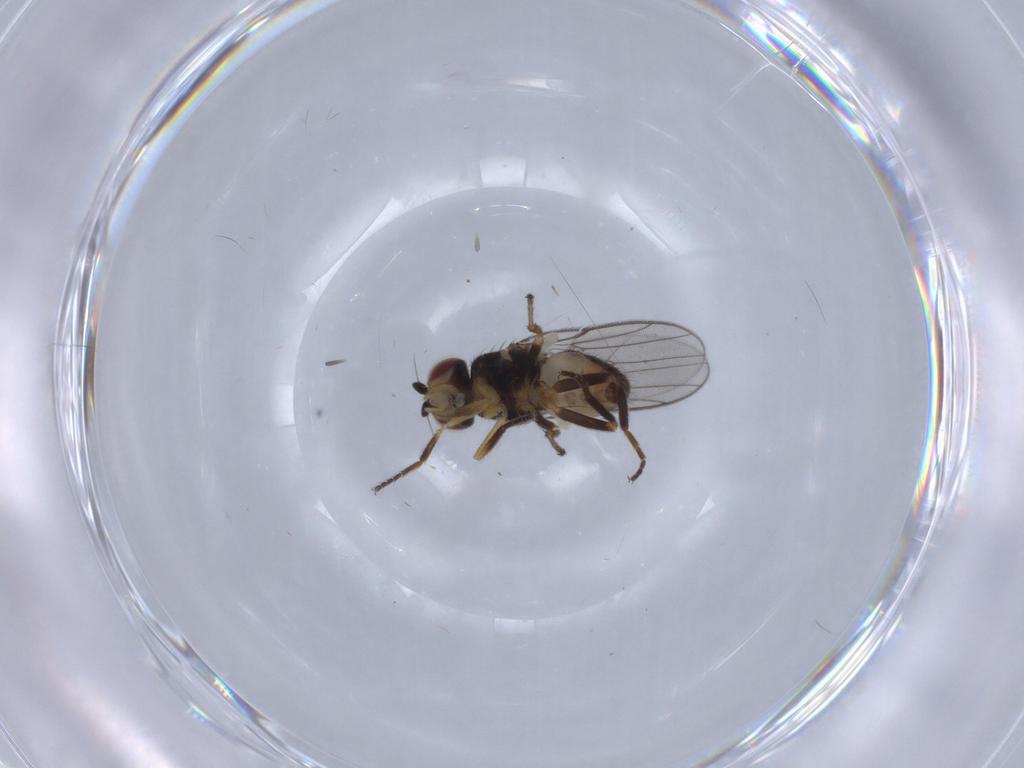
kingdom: Animalia
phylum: Arthropoda
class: Insecta
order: Diptera
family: Chloropidae
